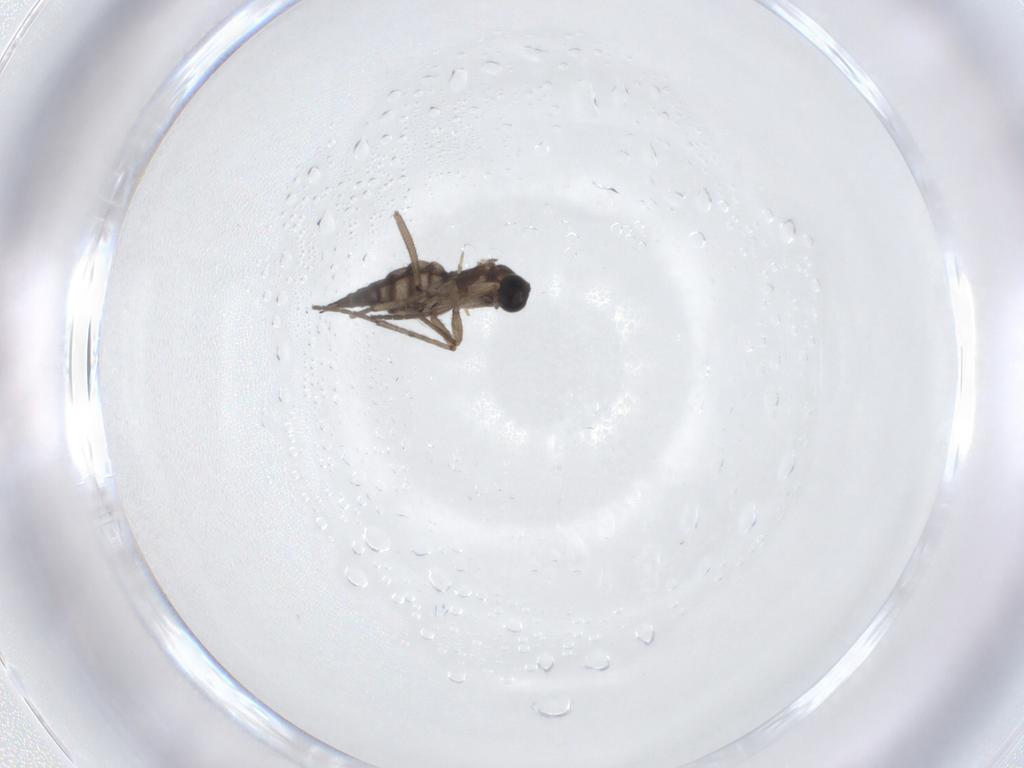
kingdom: Animalia
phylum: Arthropoda
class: Insecta
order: Diptera
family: Sciaridae
